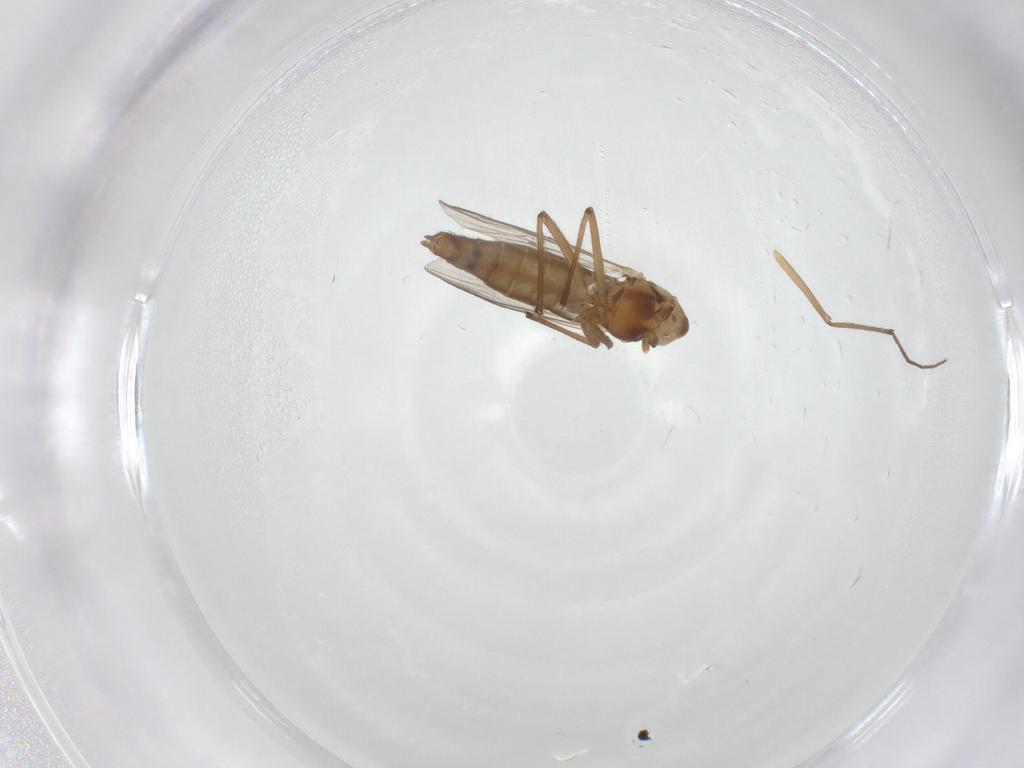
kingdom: Animalia
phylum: Arthropoda
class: Insecta
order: Diptera
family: Chironomidae
